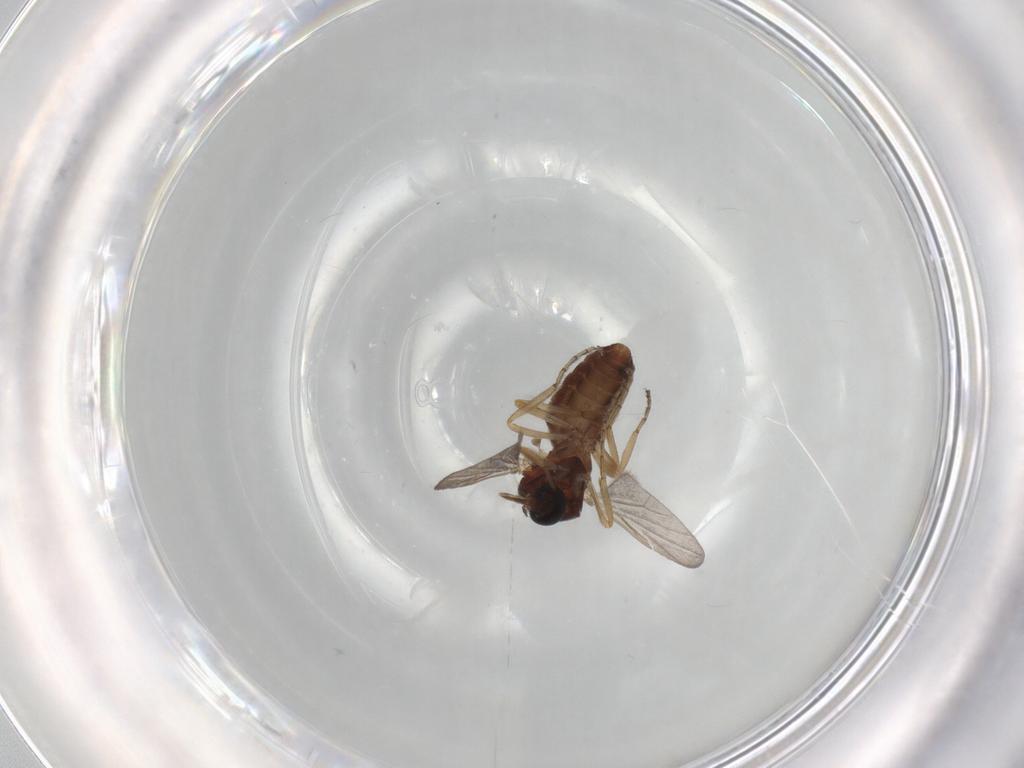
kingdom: Animalia
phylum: Arthropoda
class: Insecta
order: Diptera
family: Ceratopogonidae
